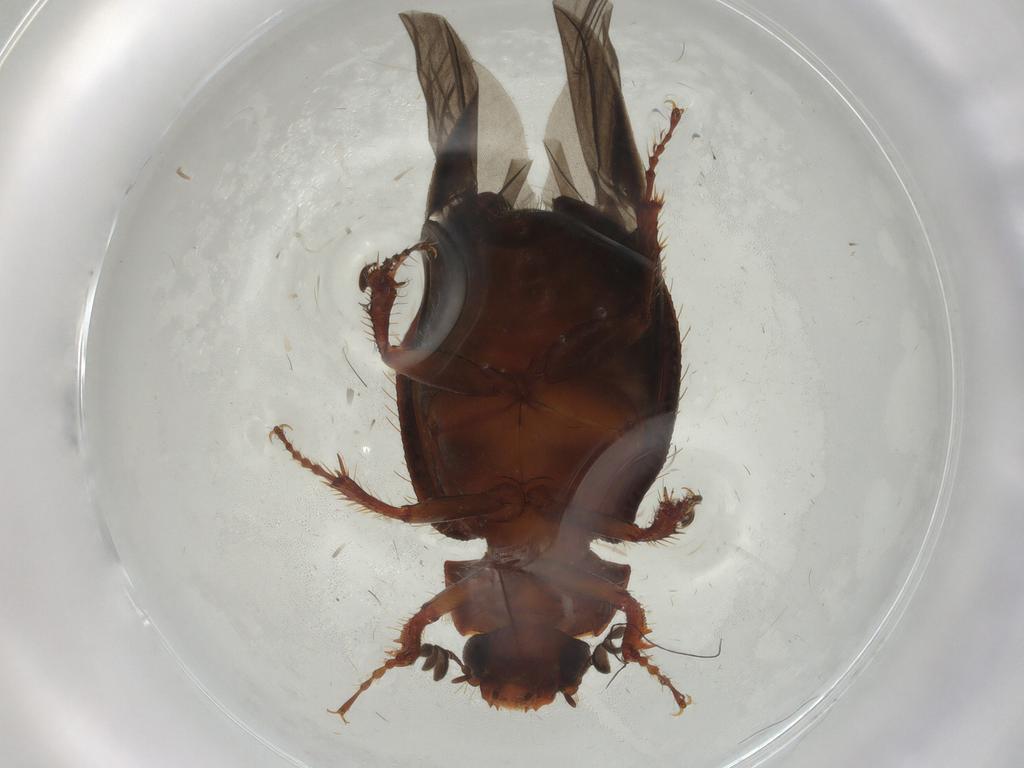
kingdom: Animalia
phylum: Arthropoda
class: Insecta
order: Coleoptera
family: Hybosoridae
